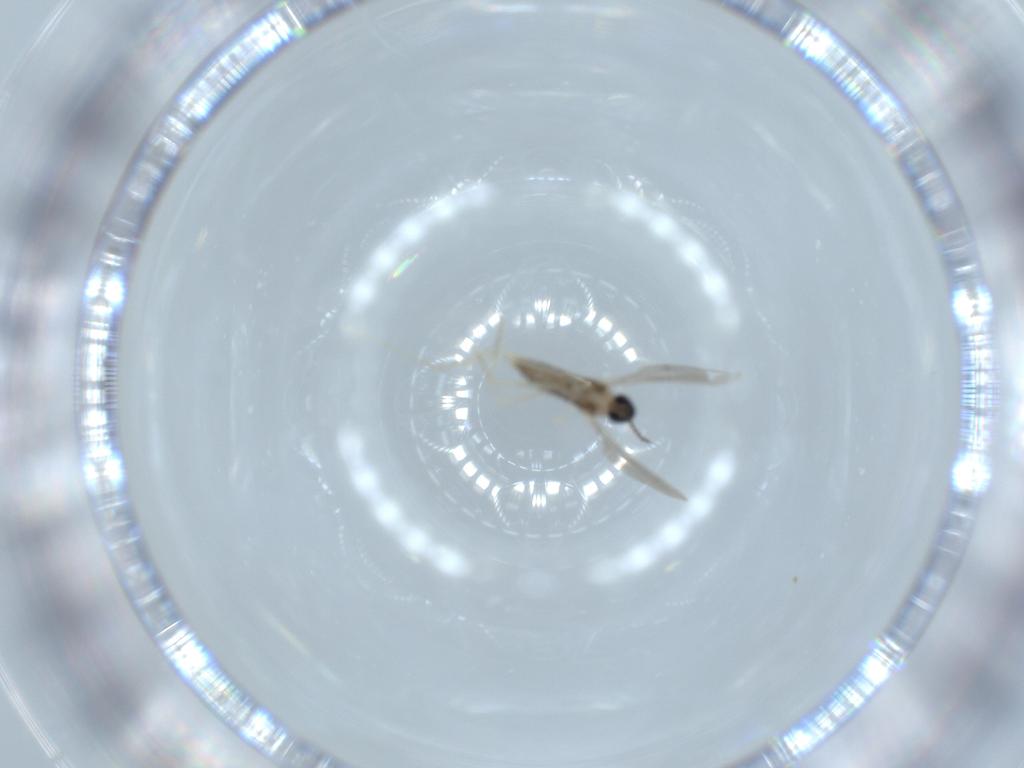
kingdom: Animalia
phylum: Arthropoda
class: Insecta
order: Diptera
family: Cecidomyiidae
